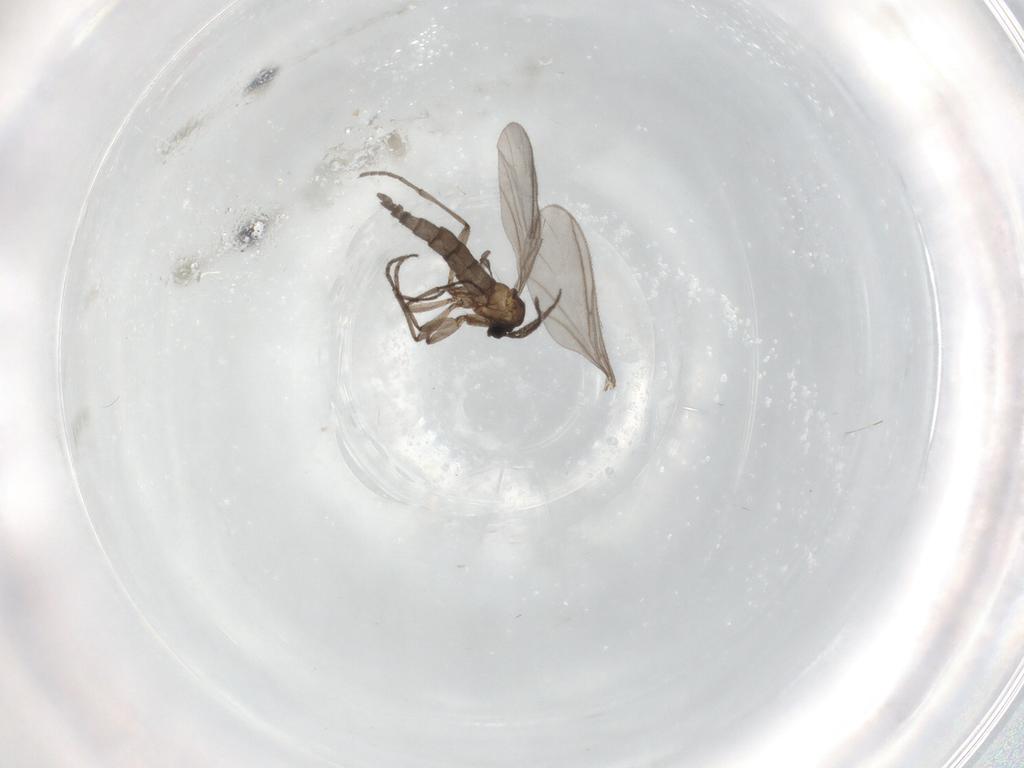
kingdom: Animalia
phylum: Arthropoda
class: Insecta
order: Diptera
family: Sciaridae
